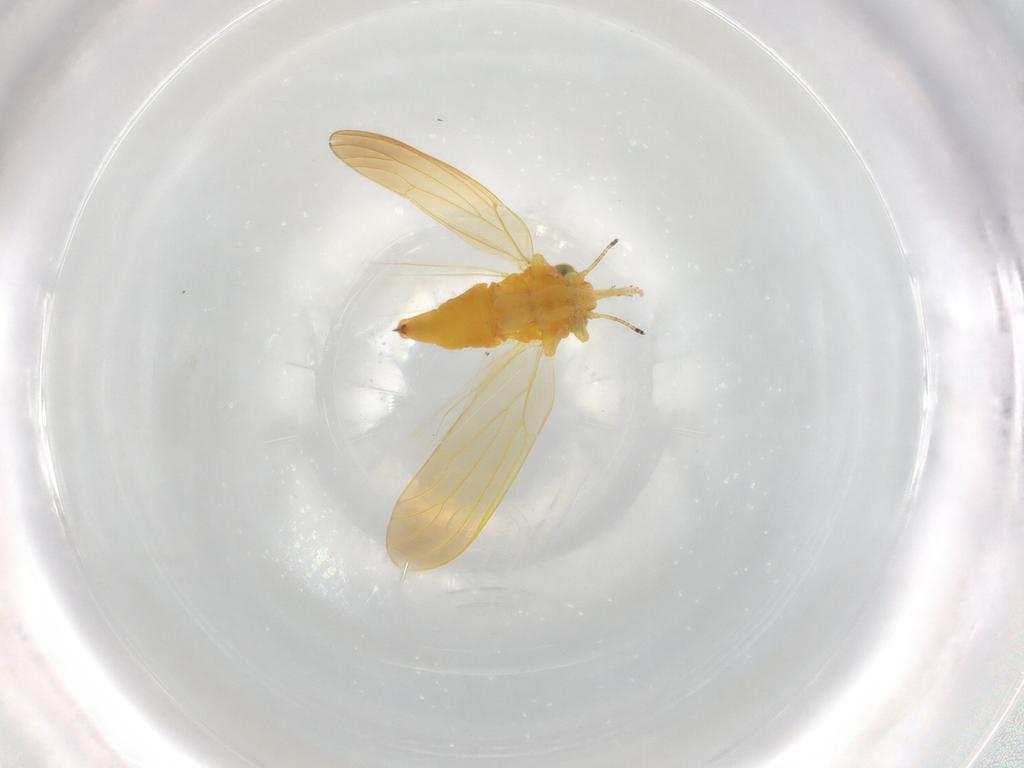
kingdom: Animalia
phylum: Arthropoda
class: Insecta
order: Hemiptera
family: Aphalaridae
